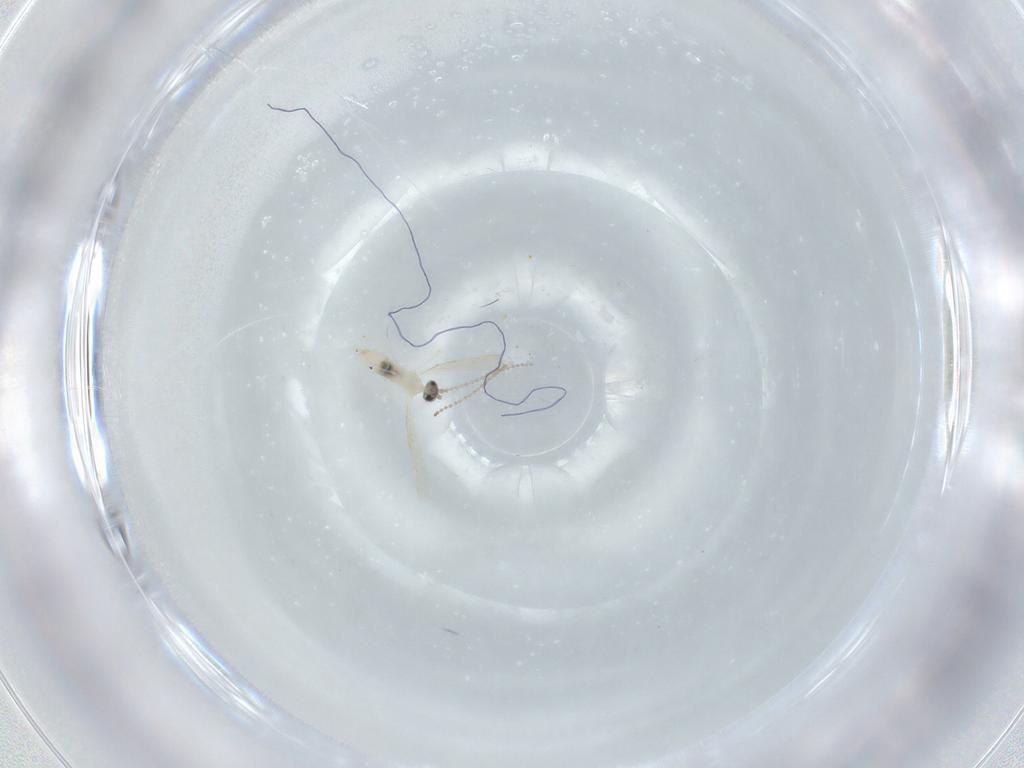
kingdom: Animalia
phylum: Arthropoda
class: Insecta
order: Diptera
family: Cecidomyiidae
